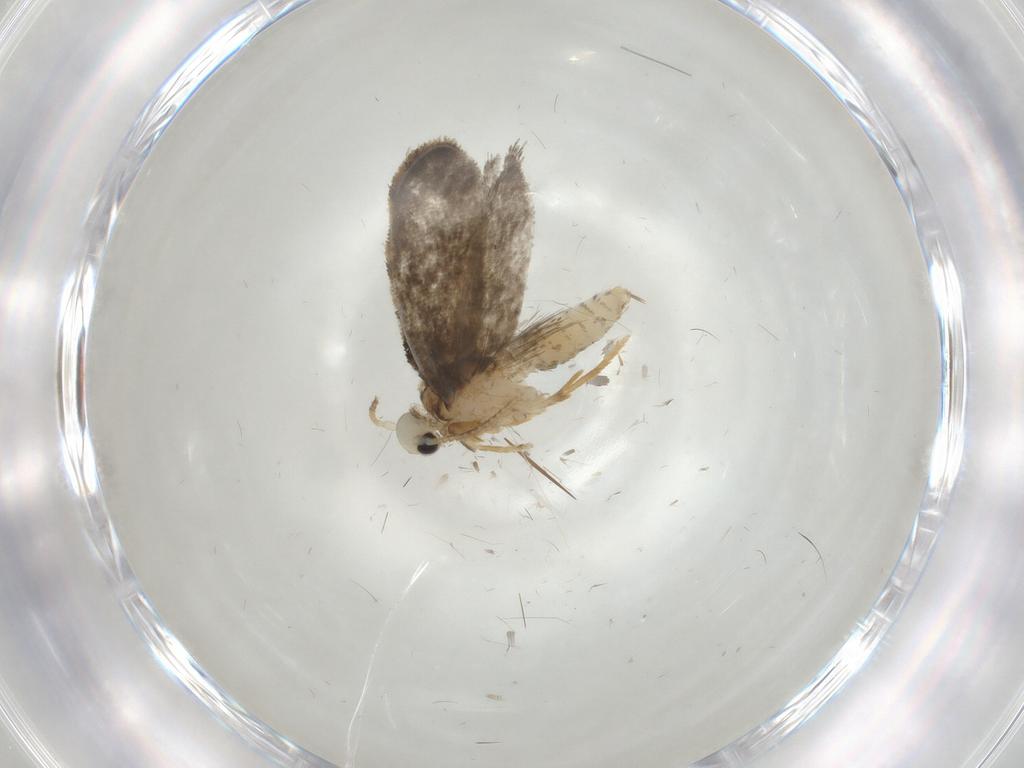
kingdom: Animalia
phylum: Arthropoda
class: Insecta
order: Lepidoptera
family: Psychidae
